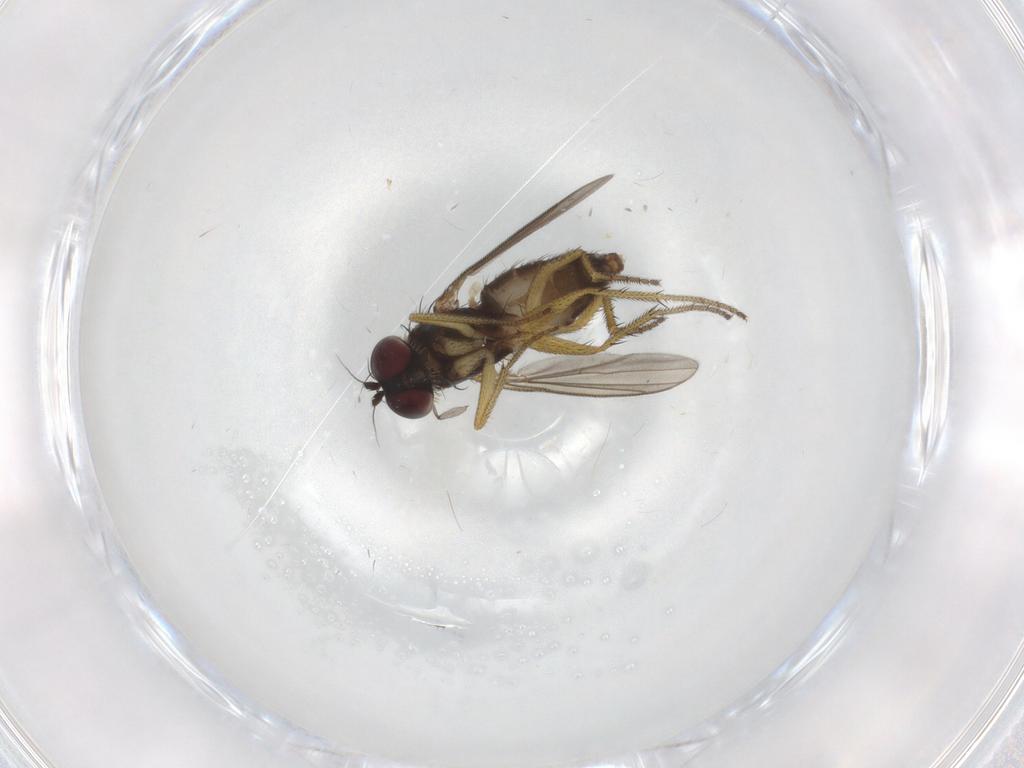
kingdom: Animalia
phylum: Arthropoda
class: Insecta
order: Diptera
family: Sciaridae
